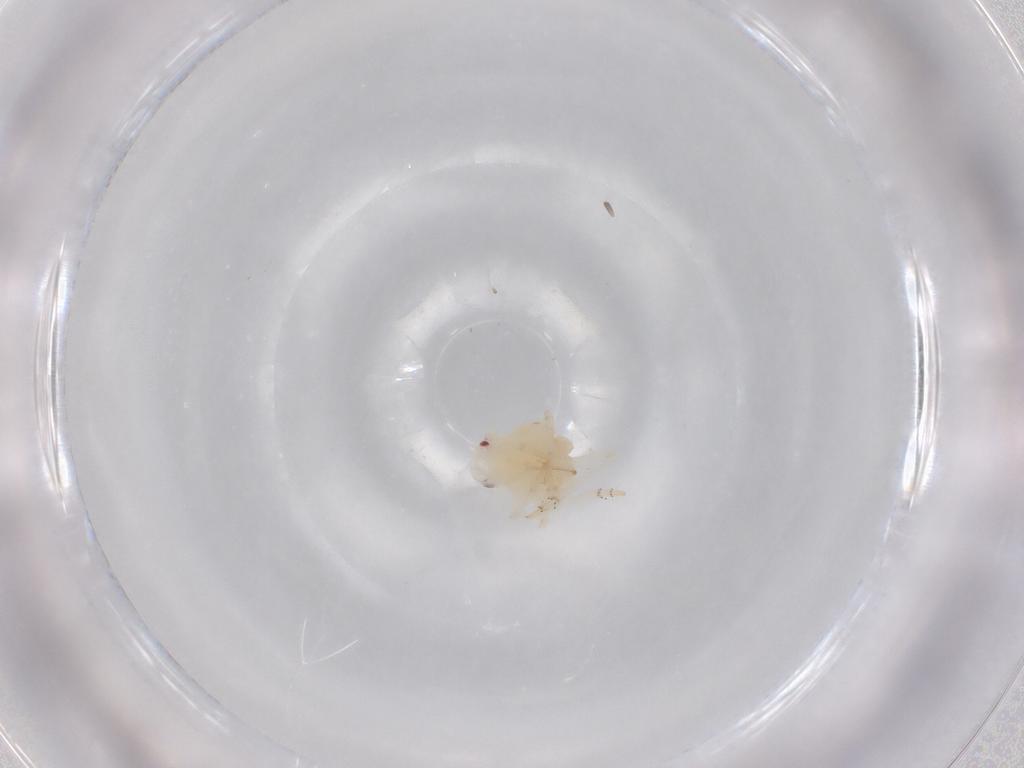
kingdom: Animalia
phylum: Arthropoda
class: Insecta
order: Hemiptera
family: Ricaniidae
